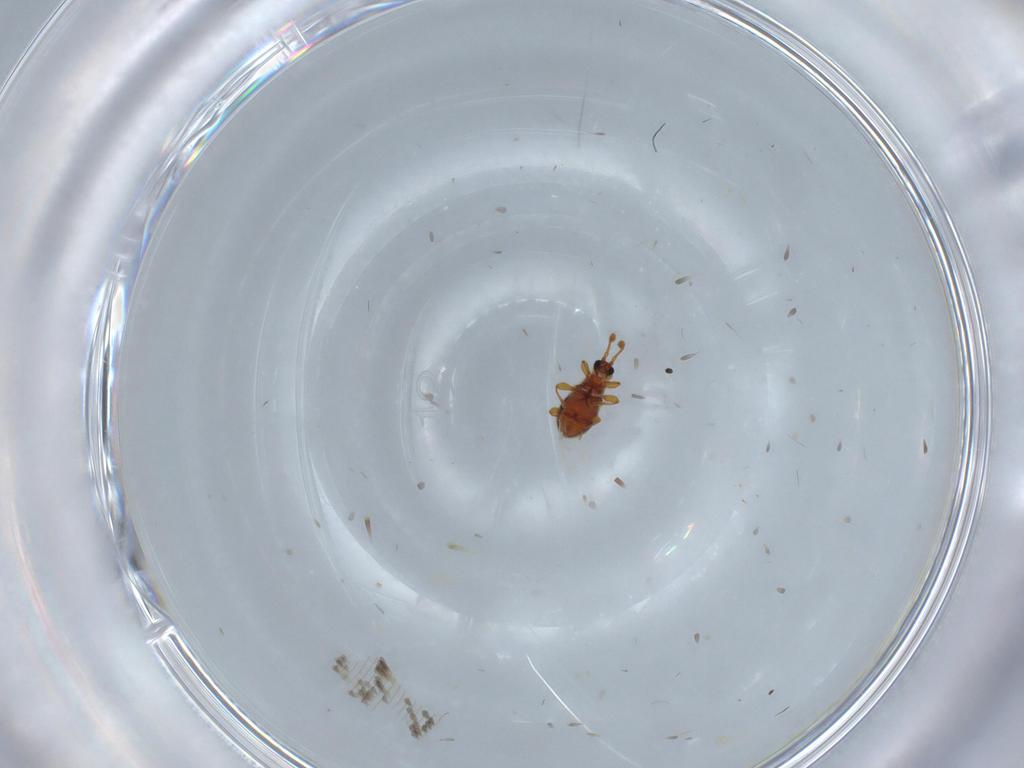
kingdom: Animalia
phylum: Arthropoda
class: Insecta
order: Coleoptera
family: Staphylinidae
